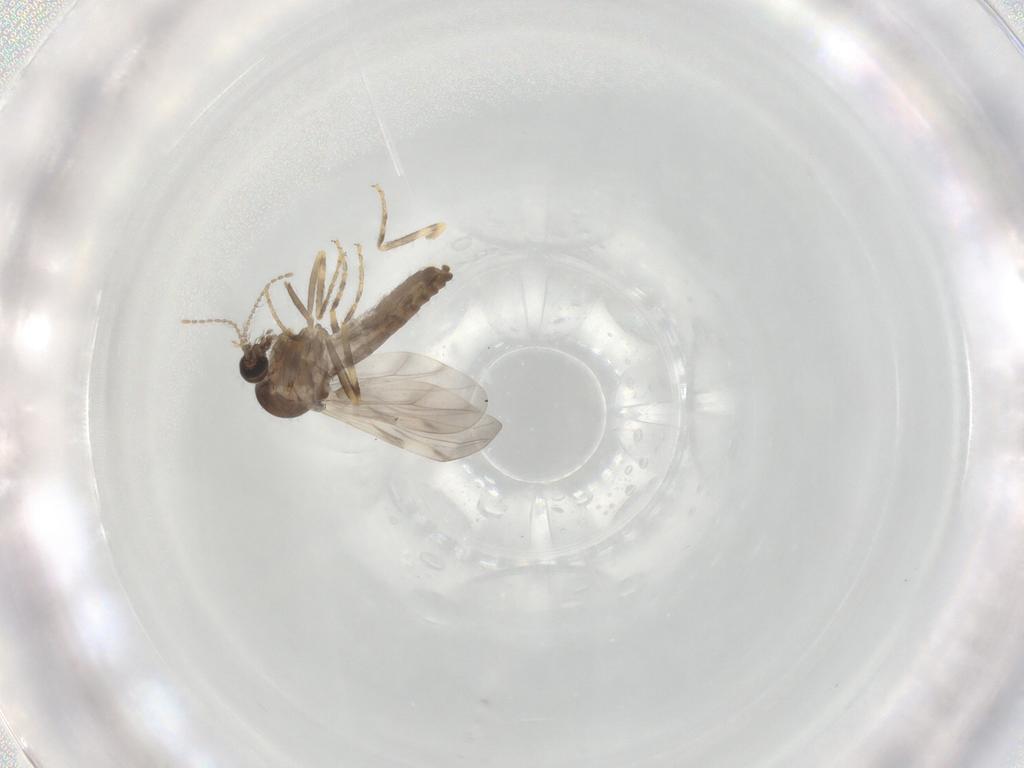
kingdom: Animalia
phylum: Arthropoda
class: Insecta
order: Diptera
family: Ceratopogonidae
